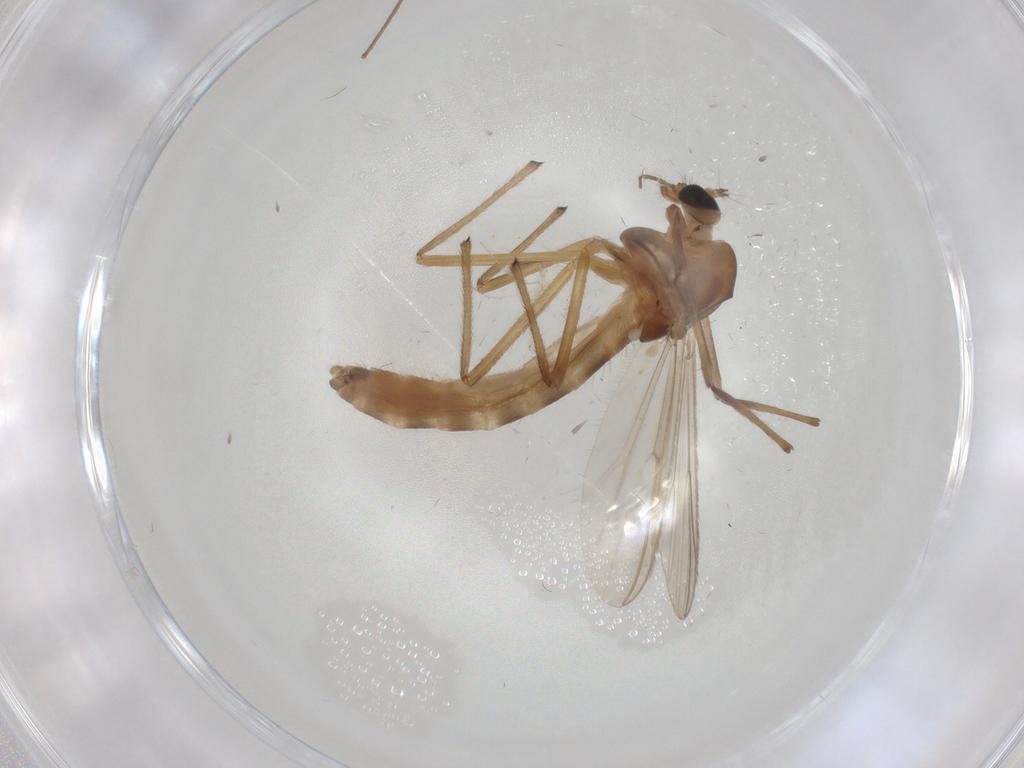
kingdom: Animalia
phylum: Arthropoda
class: Insecta
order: Diptera
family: Chironomidae
